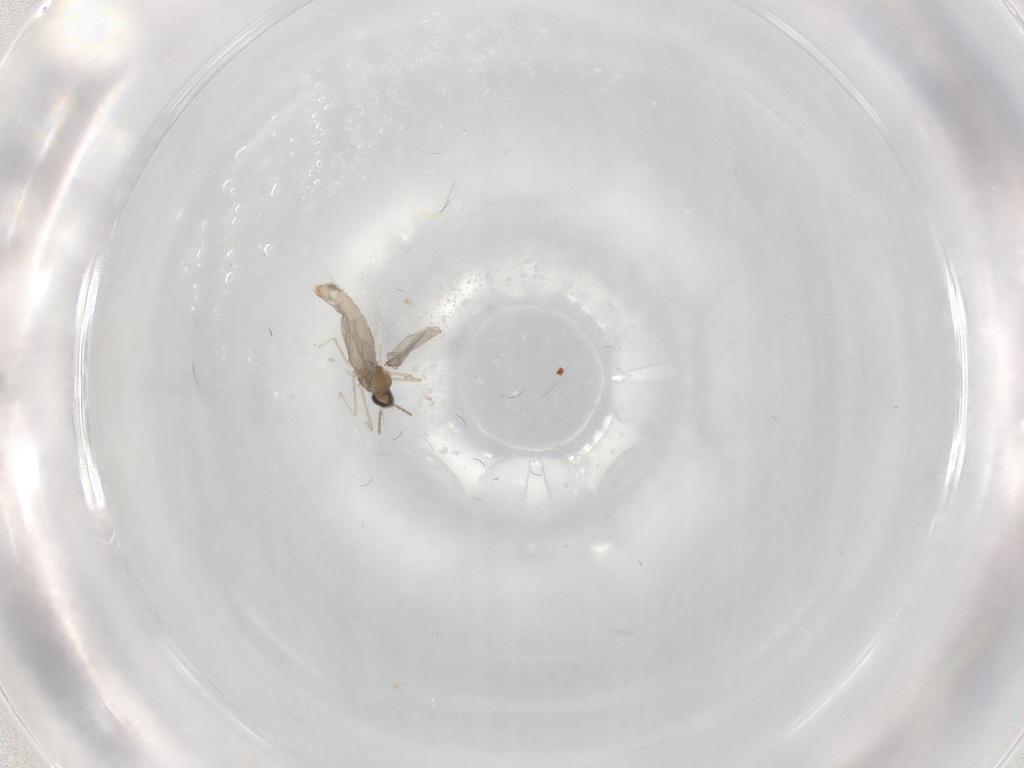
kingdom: Animalia
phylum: Arthropoda
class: Insecta
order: Diptera
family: Cecidomyiidae
